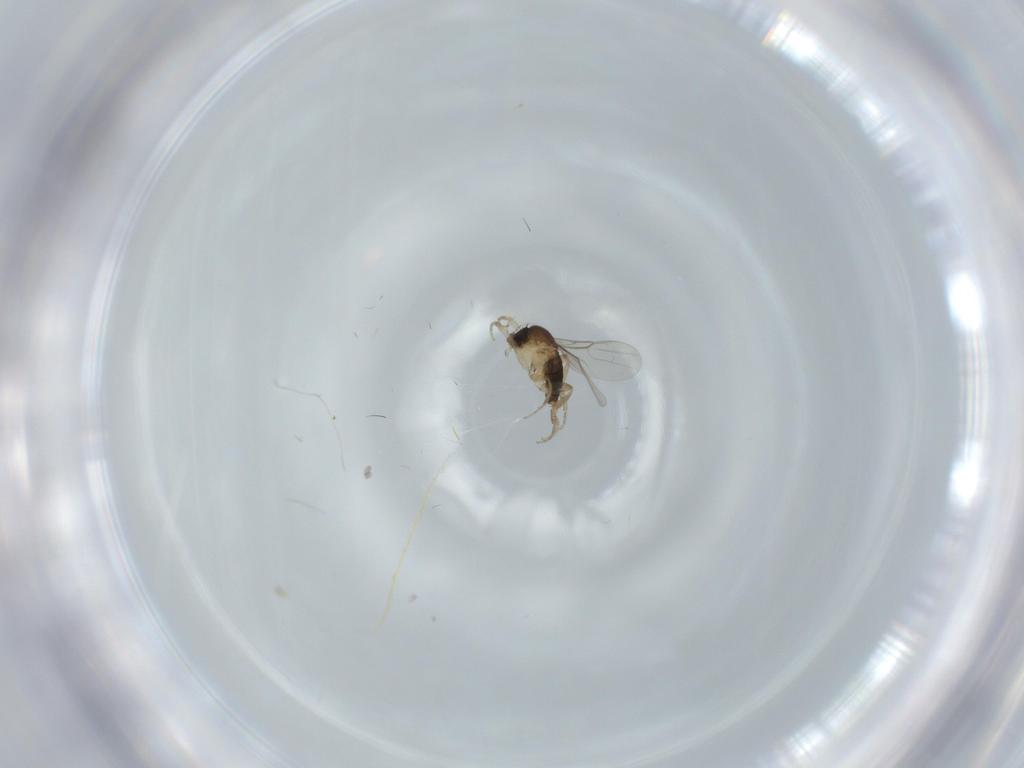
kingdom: Animalia
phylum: Arthropoda
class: Insecta
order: Diptera
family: Phoridae
